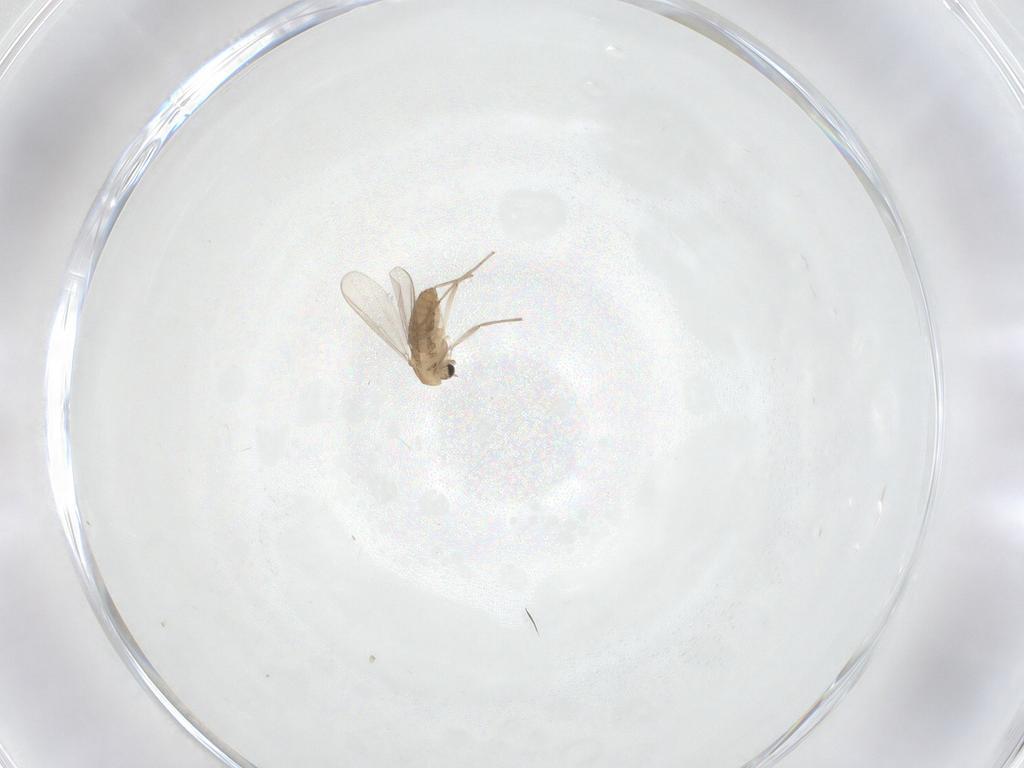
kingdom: Animalia
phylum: Arthropoda
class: Insecta
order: Diptera
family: Chironomidae
